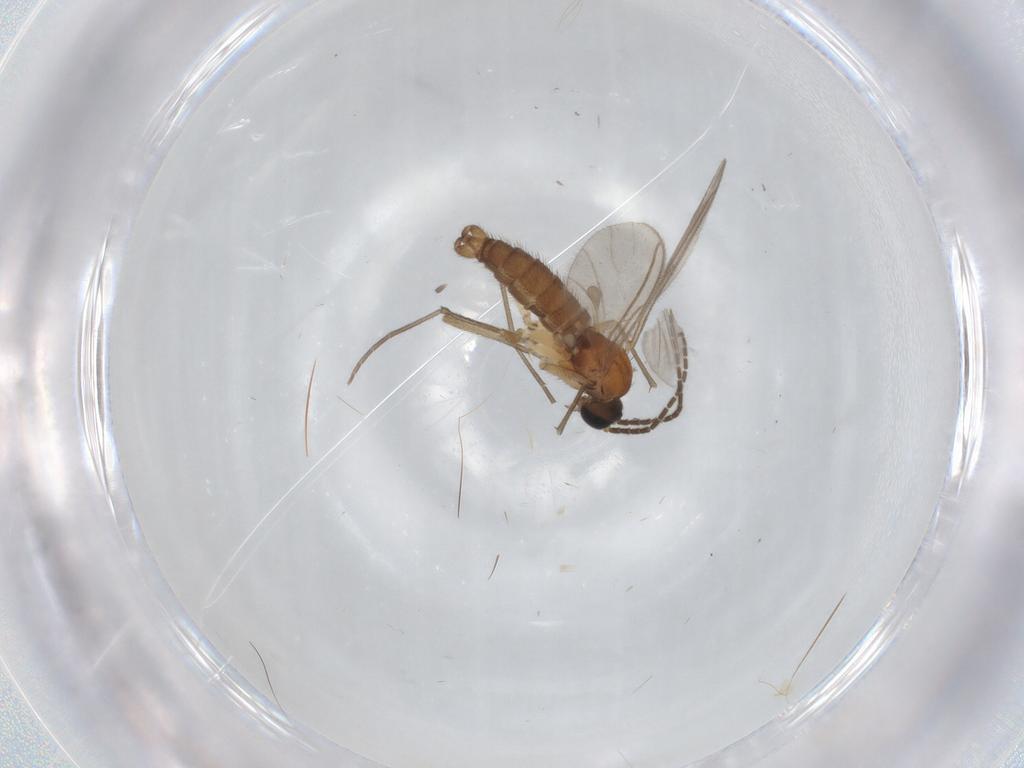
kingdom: Animalia
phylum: Arthropoda
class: Insecta
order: Diptera
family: Sciaridae
